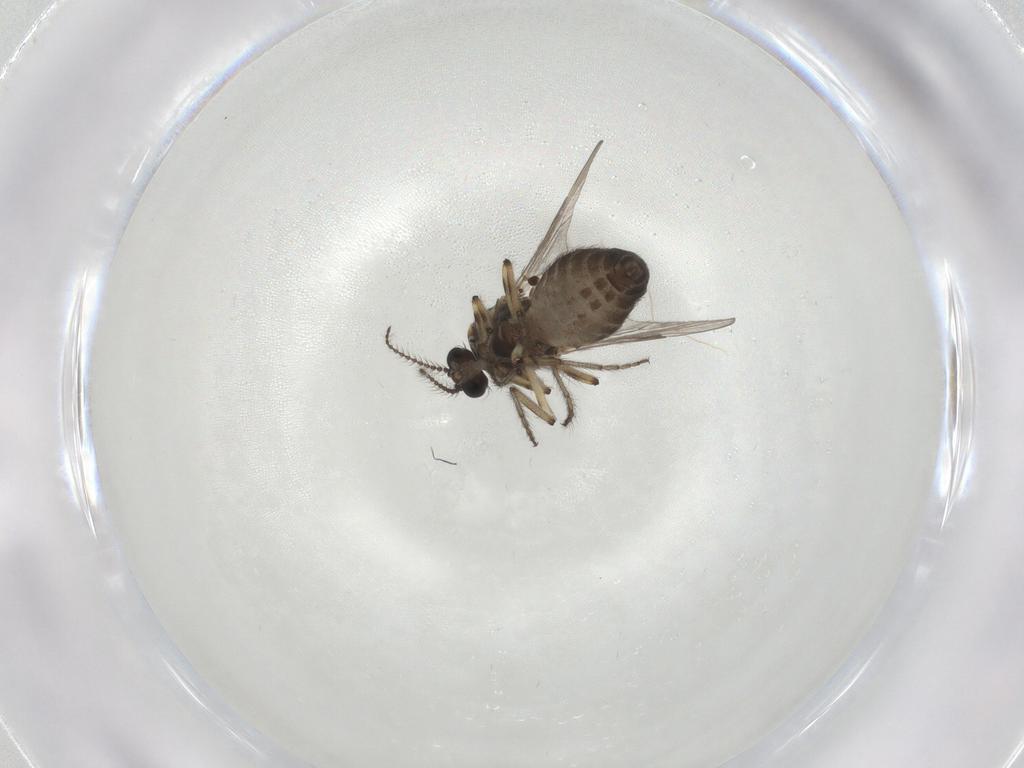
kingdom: Animalia
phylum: Arthropoda
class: Insecta
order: Diptera
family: Ceratopogonidae
